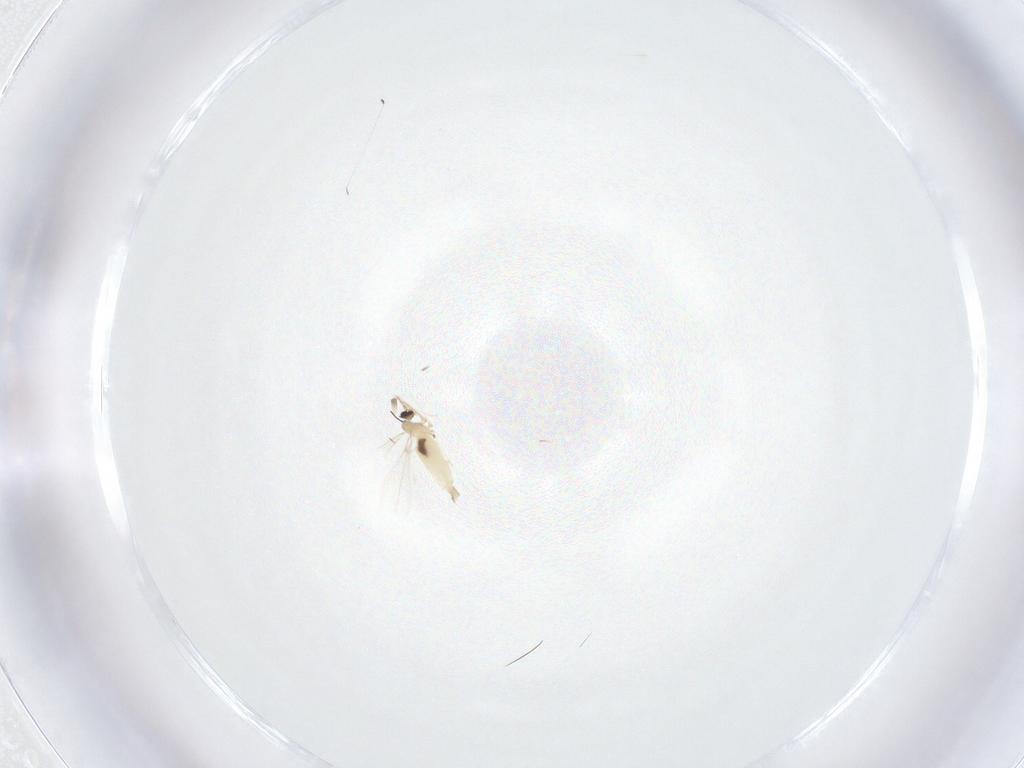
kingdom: Animalia
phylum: Arthropoda
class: Insecta
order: Diptera
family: Cecidomyiidae
